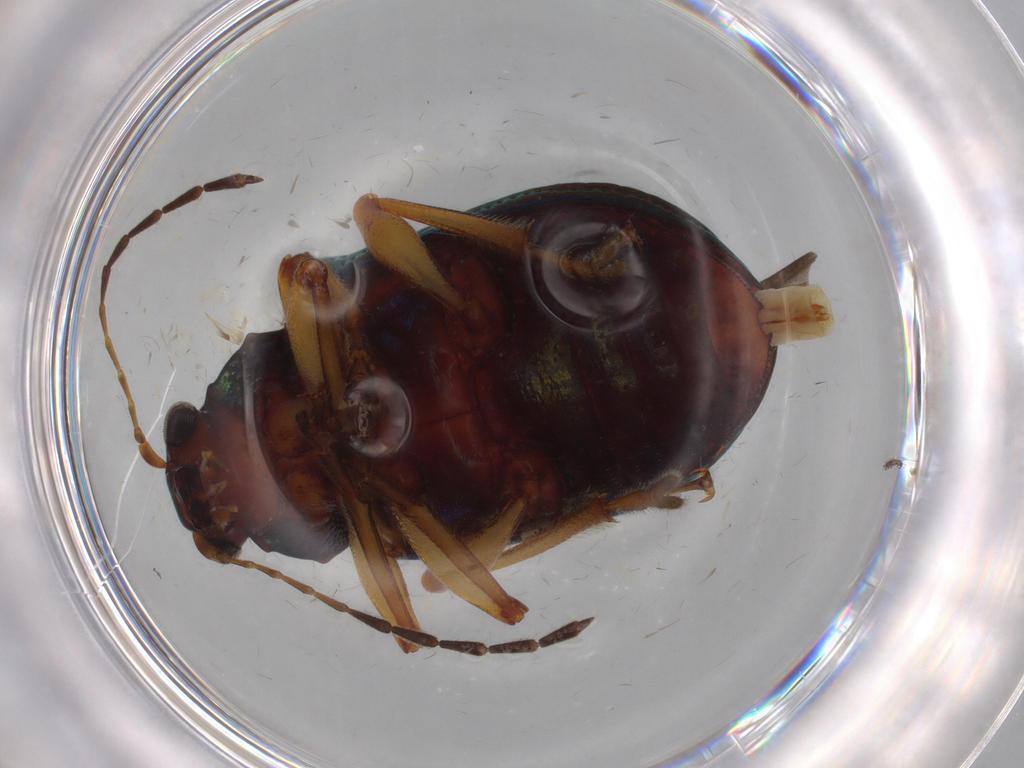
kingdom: Animalia
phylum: Arthropoda
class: Insecta
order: Coleoptera
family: Chrysomelidae
